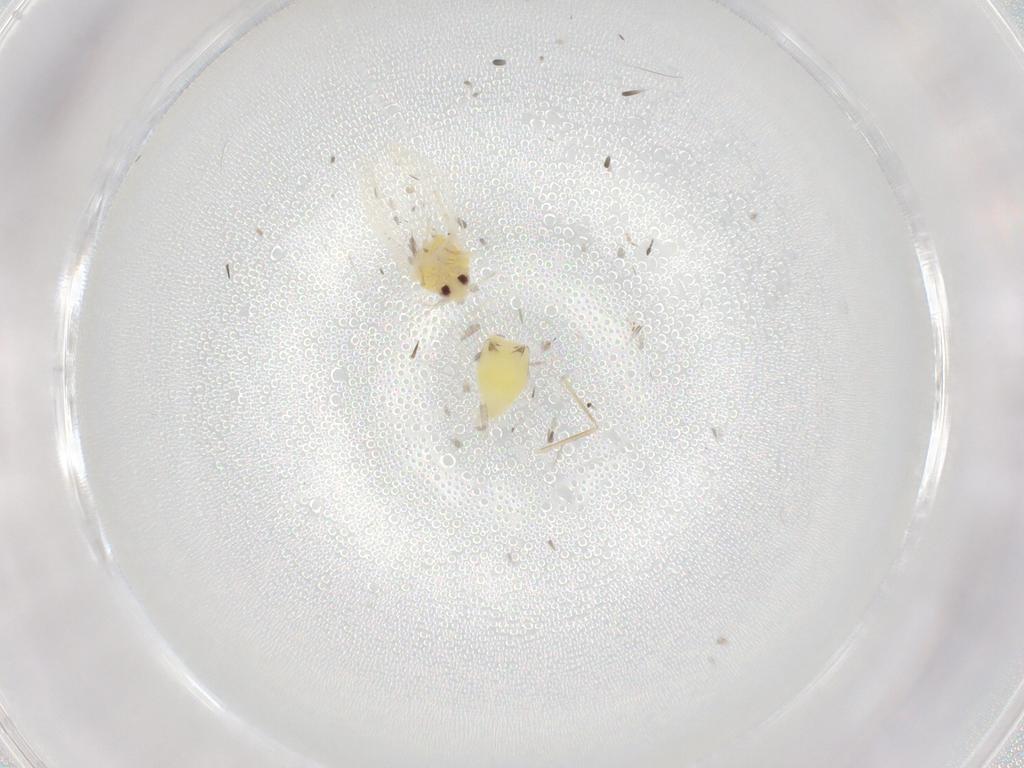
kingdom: Animalia
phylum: Arthropoda
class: Insecta
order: Hemiptera
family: Aleyrodidae
